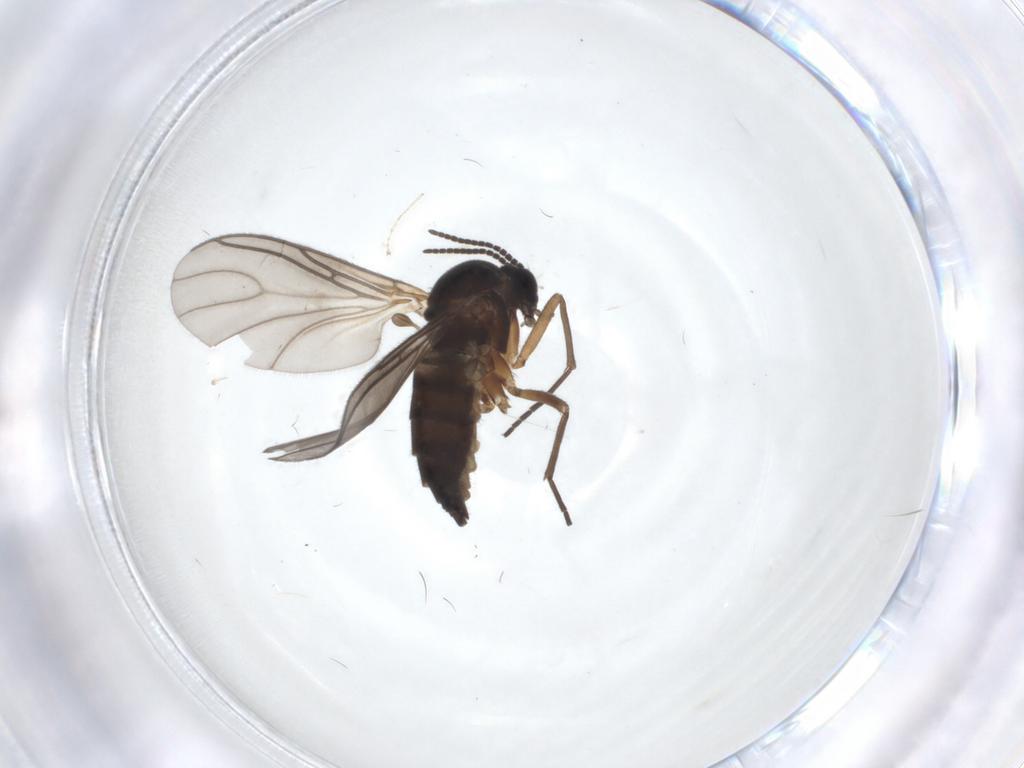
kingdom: Animalia
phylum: Arthropoda
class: Insecta
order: Diptera
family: Sciaridae
